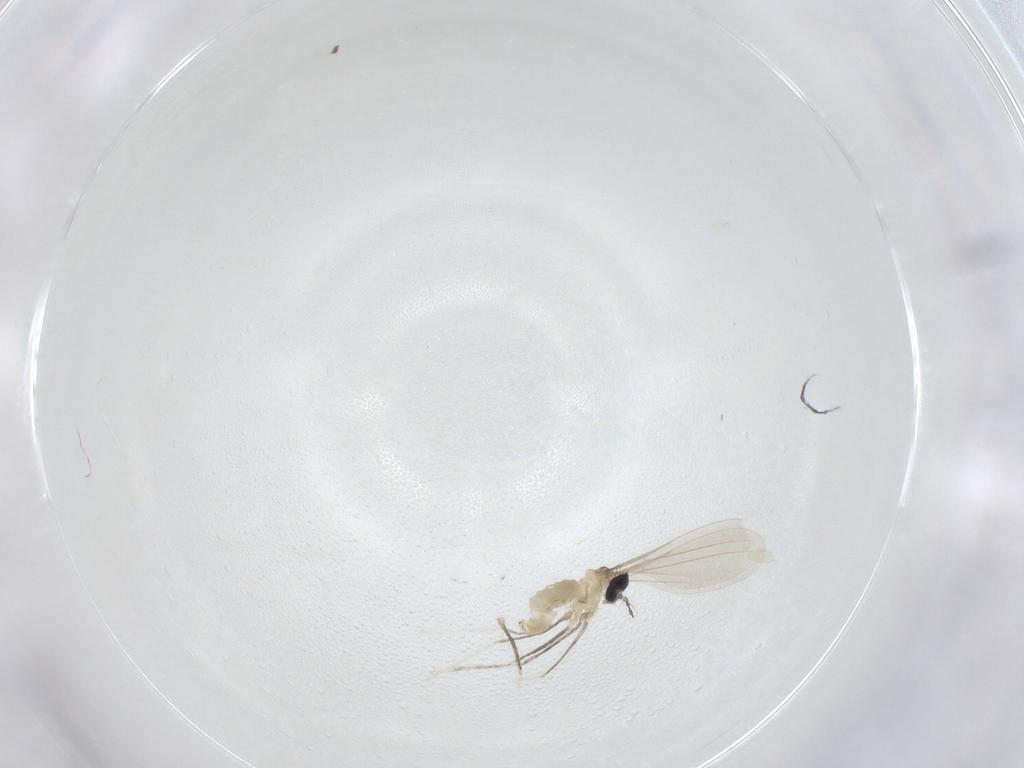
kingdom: Animalia
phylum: Arthropoda
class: Insecta
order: Diptera
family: Cecidomyiidae
